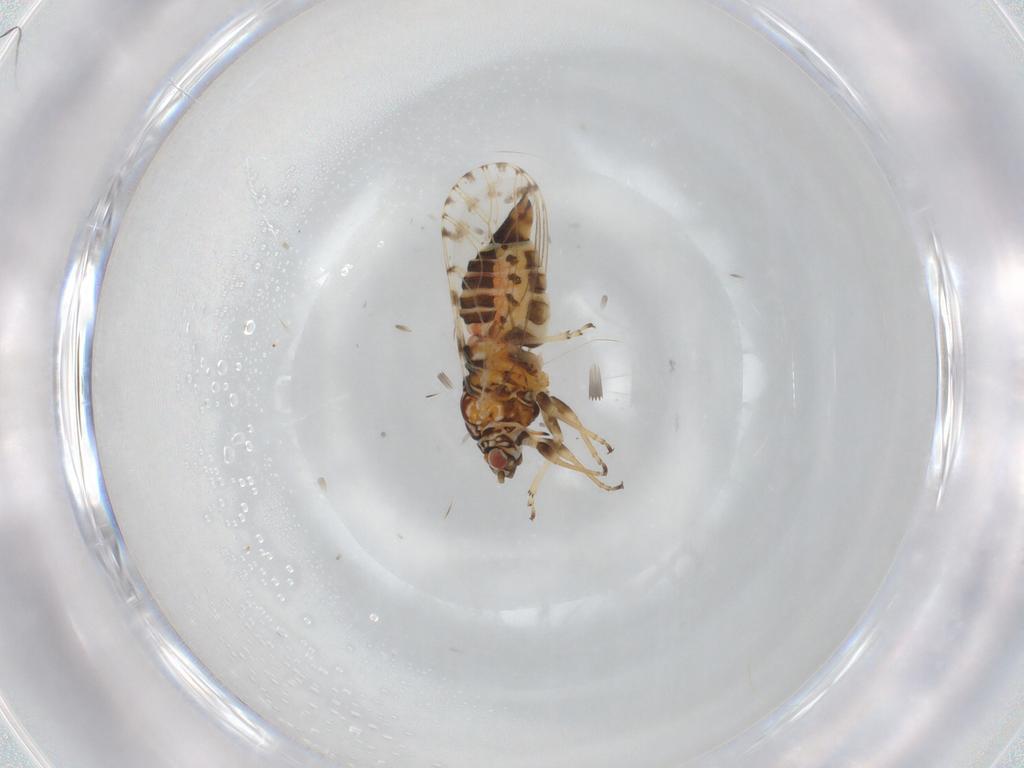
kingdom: Animalia
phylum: Arthropoda
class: Insecta
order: Hemiptera
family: Psyllidae
